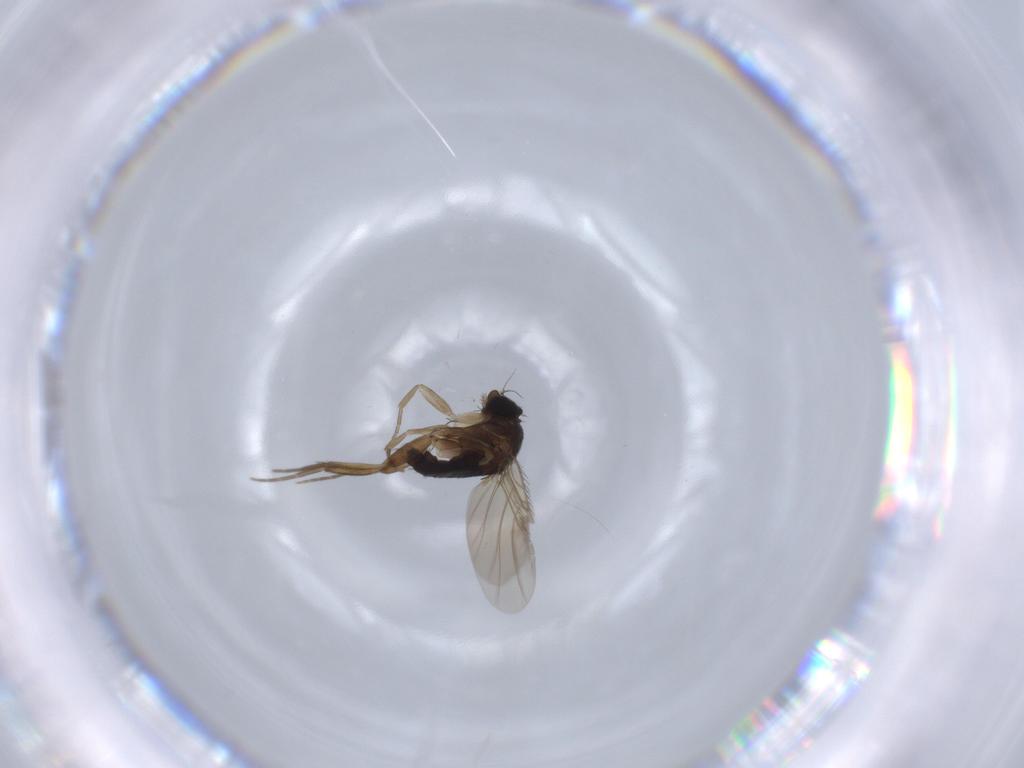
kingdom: Animalia
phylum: Arthropoda
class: Insecta
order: Diptera
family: Phoridae
